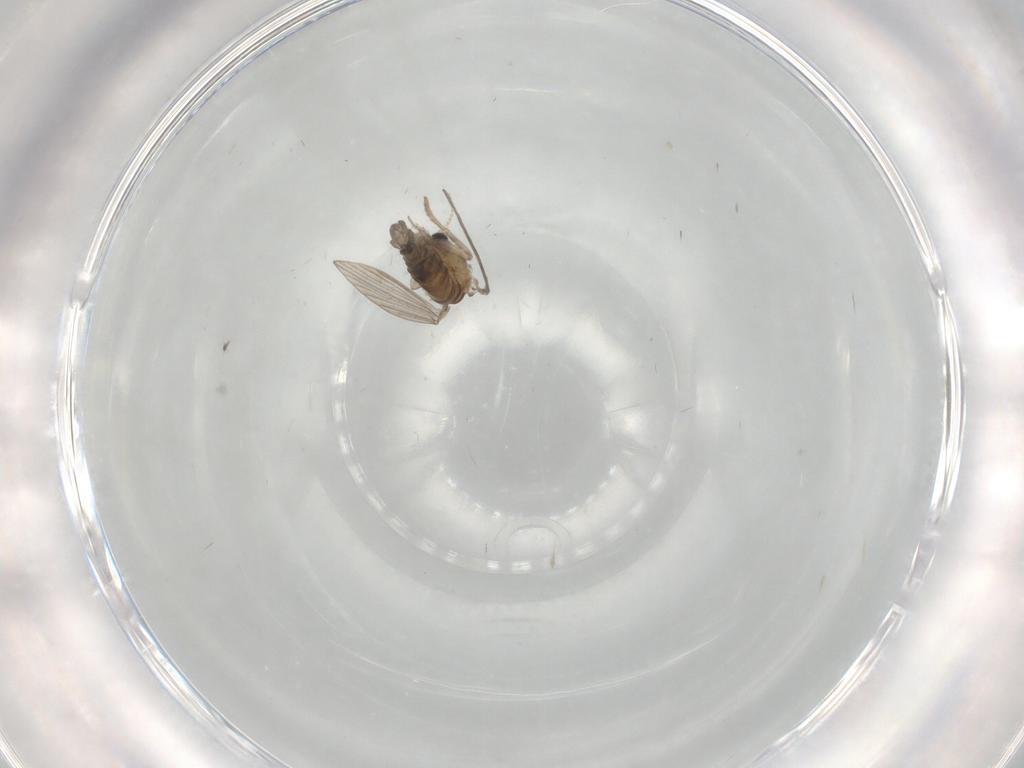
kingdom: Animalia
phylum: Arthropoda
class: Insecta
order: Diptera
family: Psychodidae
